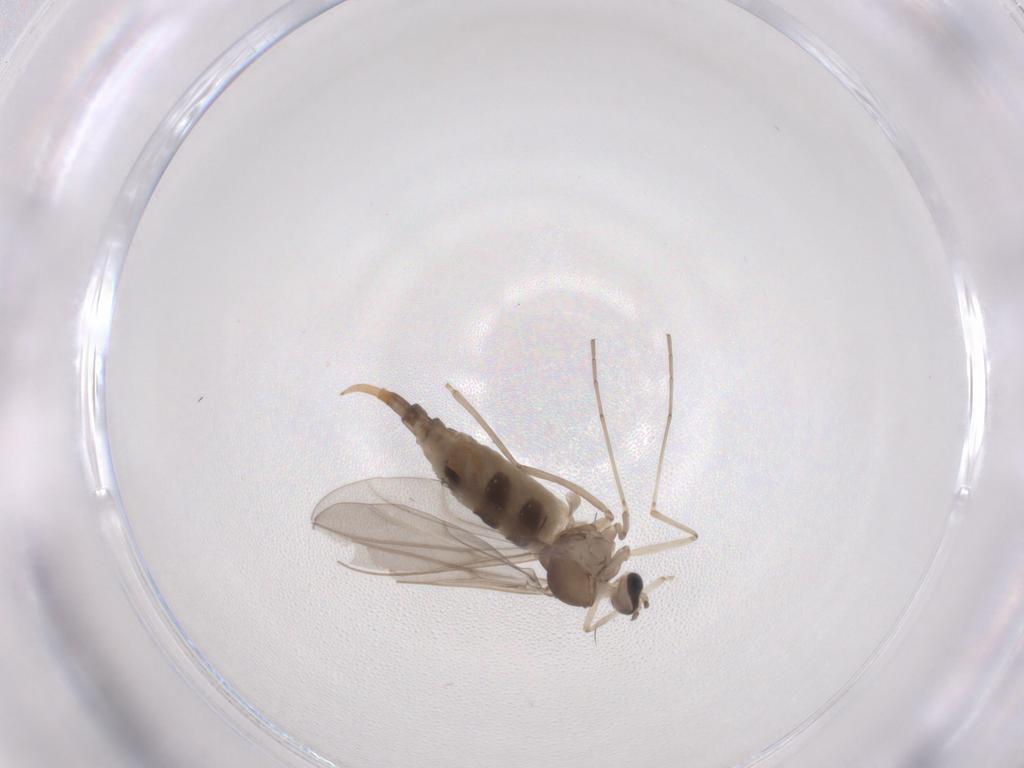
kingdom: Animalia
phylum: Arthropoda
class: Insecta
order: Diptera
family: Cecidomyiidae
